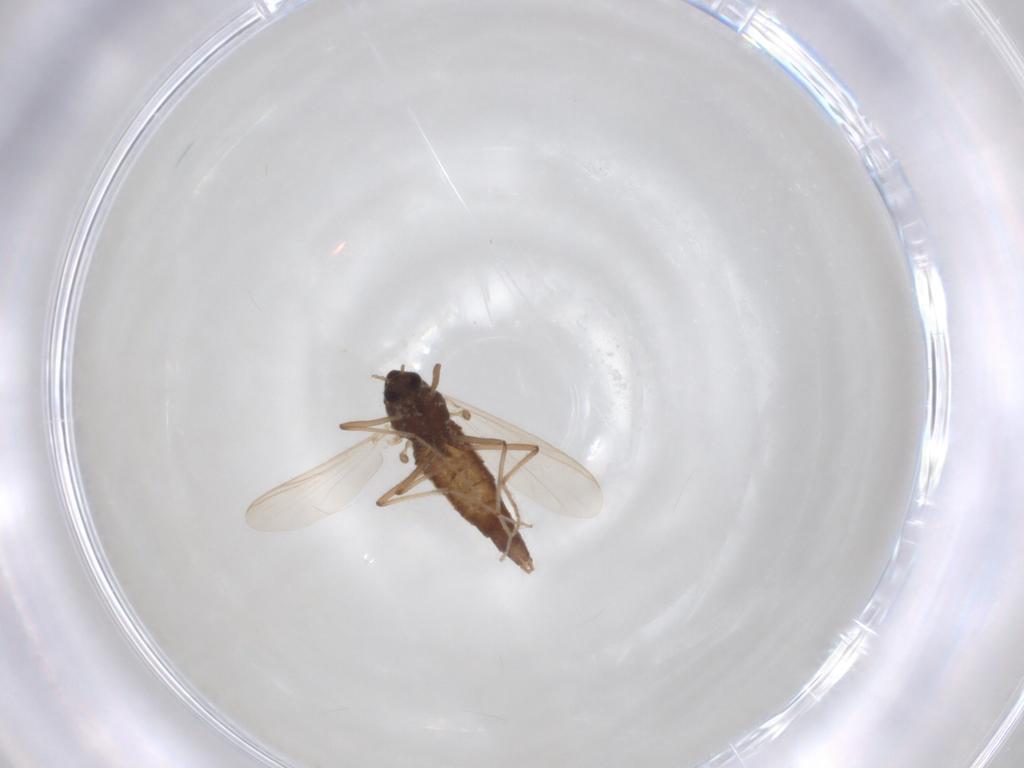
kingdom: Animalia
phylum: Arthropoda
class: Insecta
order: Diptera
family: Chironomidae
